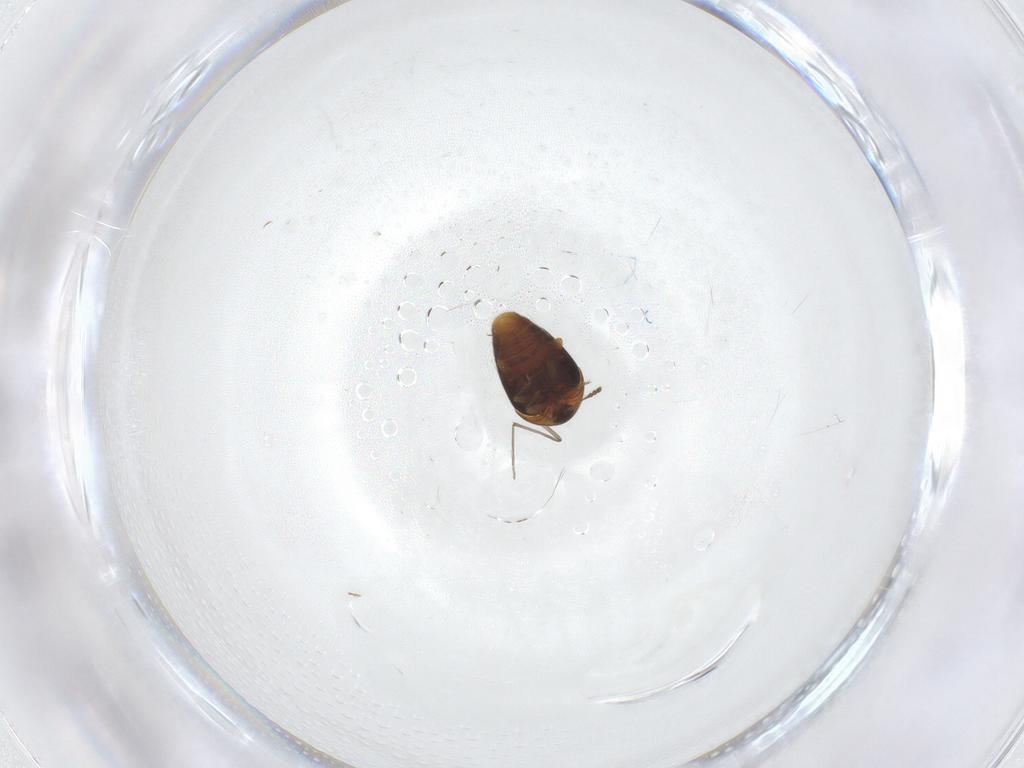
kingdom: Animalia
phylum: Arthropoda
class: Insecta
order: Coleoptera
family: Corylophidae
